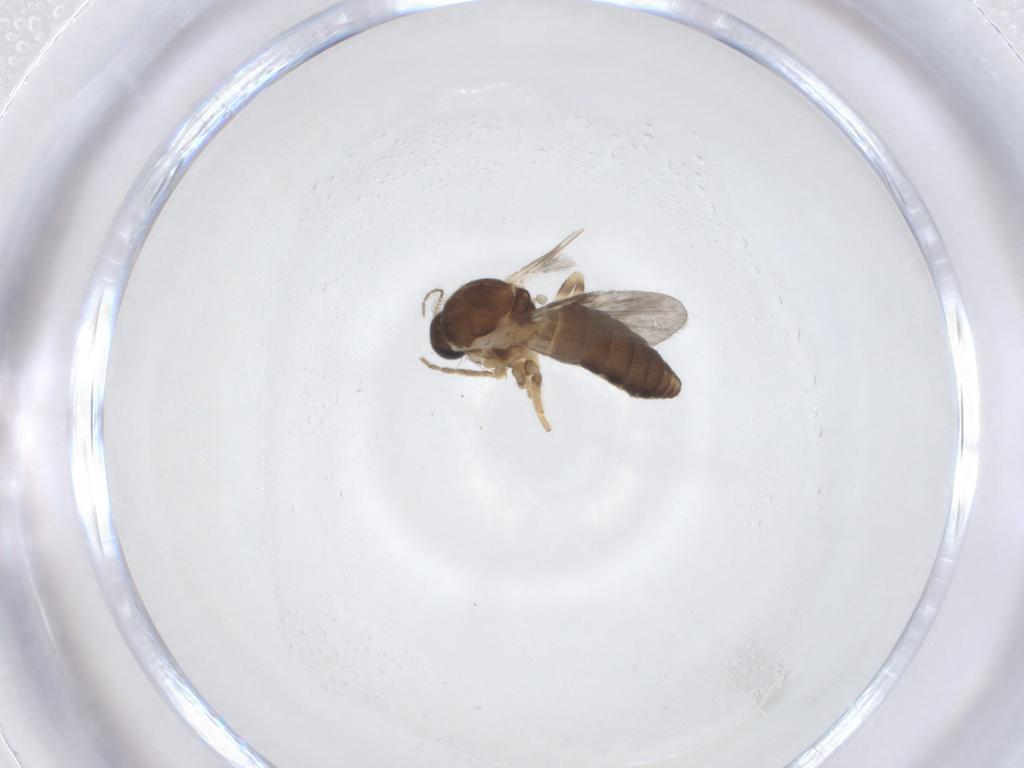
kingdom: Animalia
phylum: Arthropoda
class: Insecta
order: Diptera
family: Ceratopogonidae
